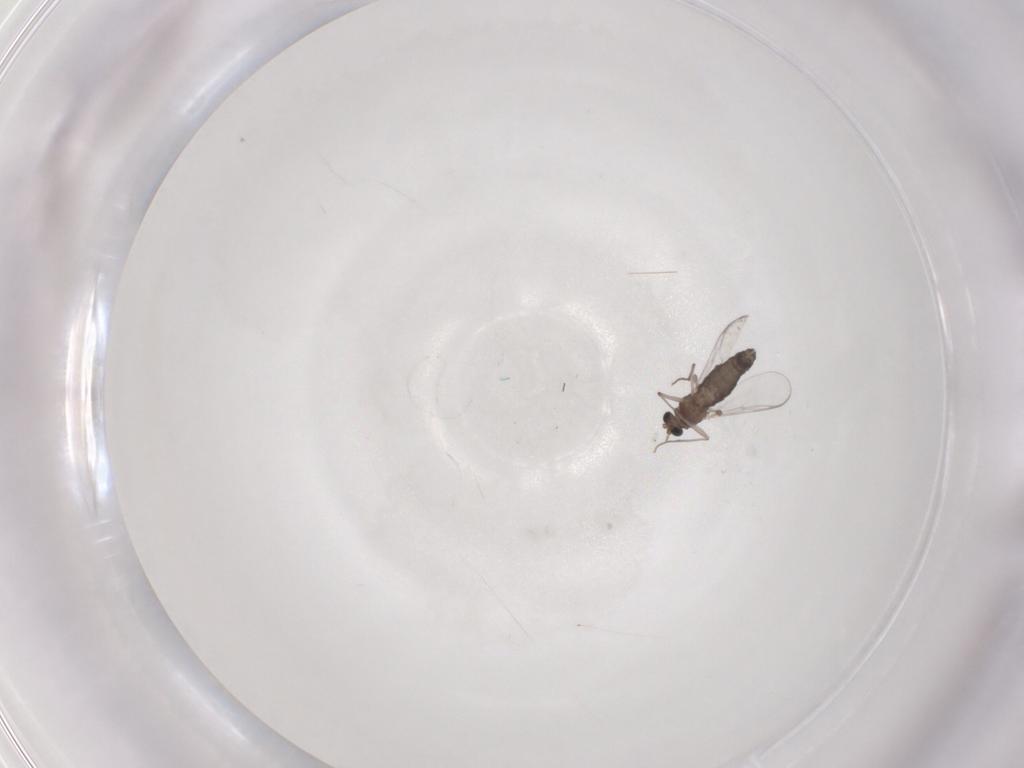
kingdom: Animalia
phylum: Arthropoda
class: Insecta
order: Diptera
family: Chironomidae
